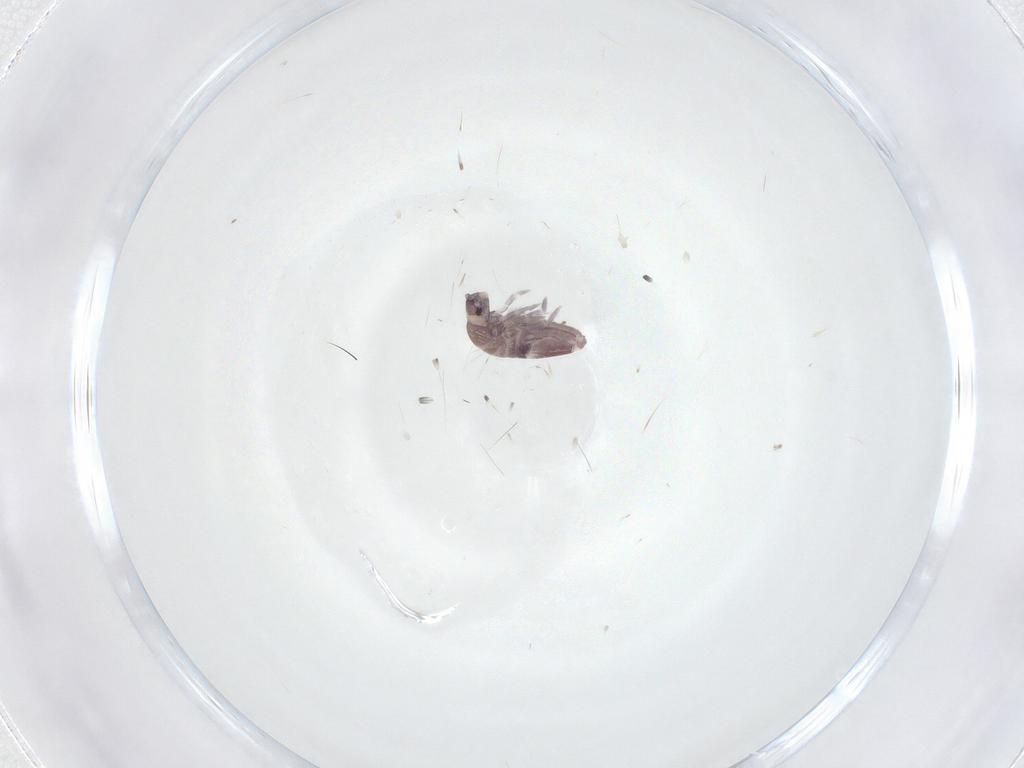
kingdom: Animalia
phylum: Arthropoda
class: Collembola
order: Entomobryomorpha
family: Entomobryidae
